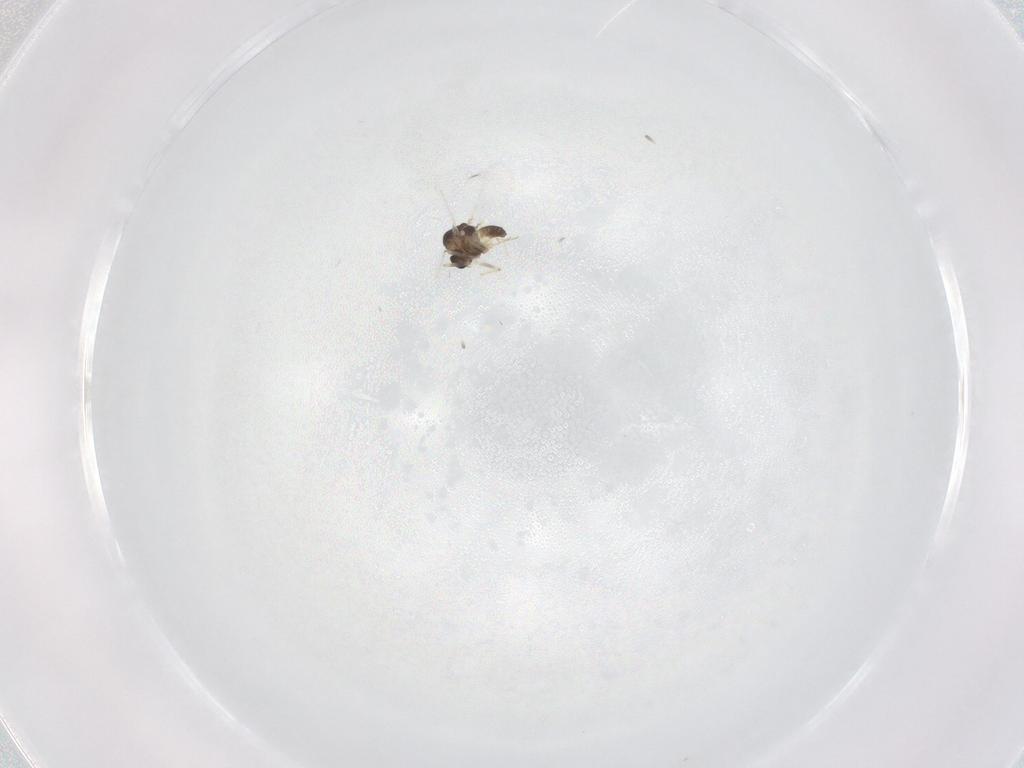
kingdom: Animalia
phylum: Arthropoda
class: Insecta
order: Diptera
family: Chironomidae
